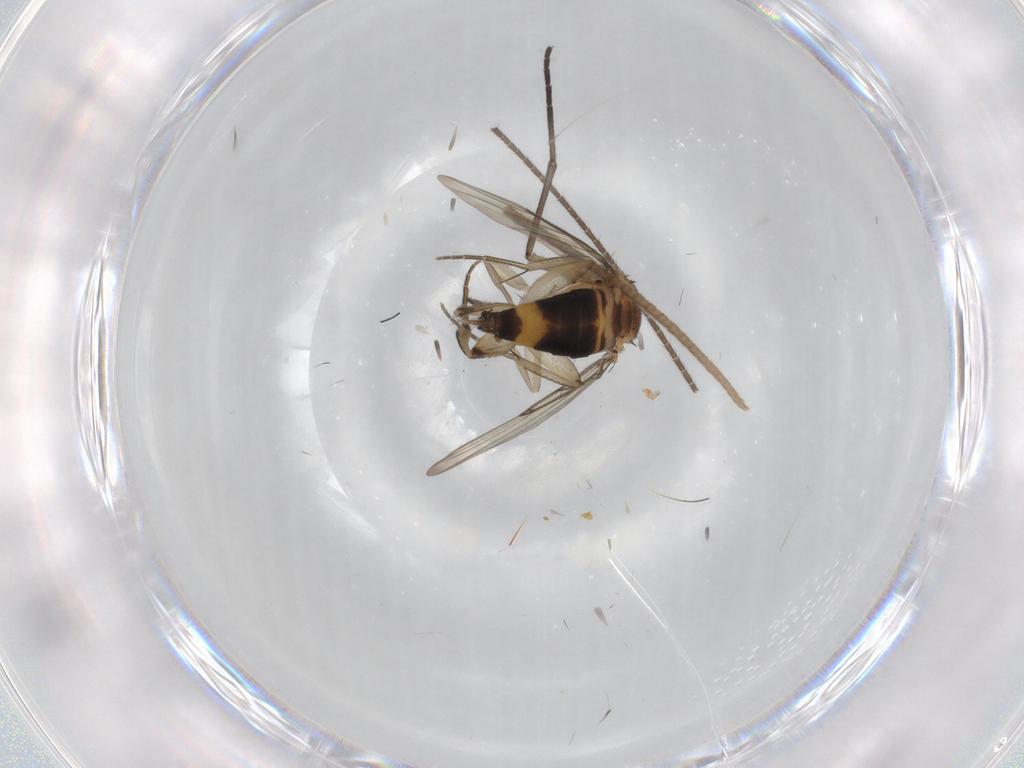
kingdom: Animalia
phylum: Arthropoda
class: Insecta
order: Diptera
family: Phoridae
